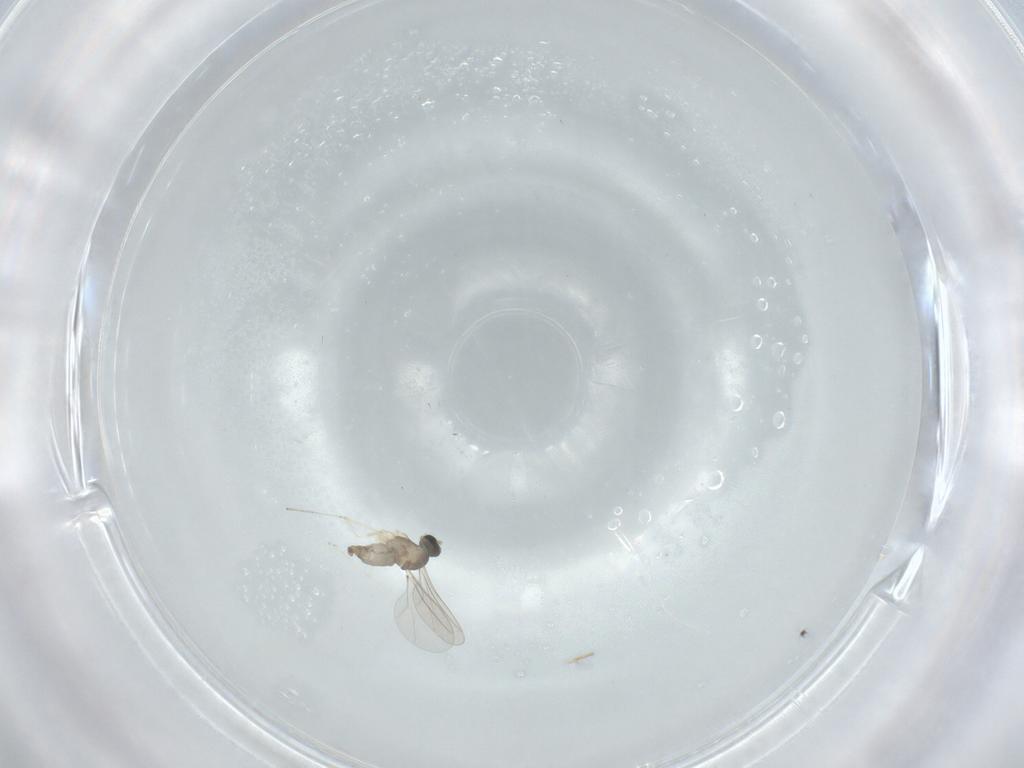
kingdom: Animalia
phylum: Arthropoda
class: Insecta
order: Diptera
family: Cecidomyiidae
